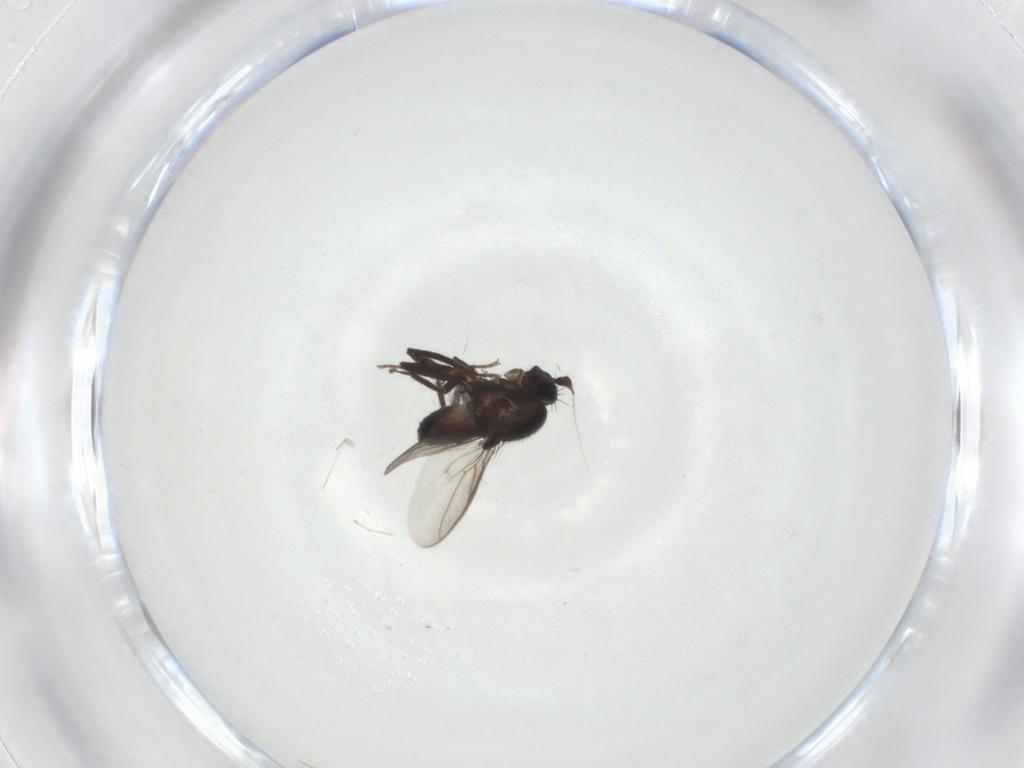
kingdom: Animalia
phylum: Arthropoda
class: Insecta
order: Diptera
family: Sphaeroceridae
